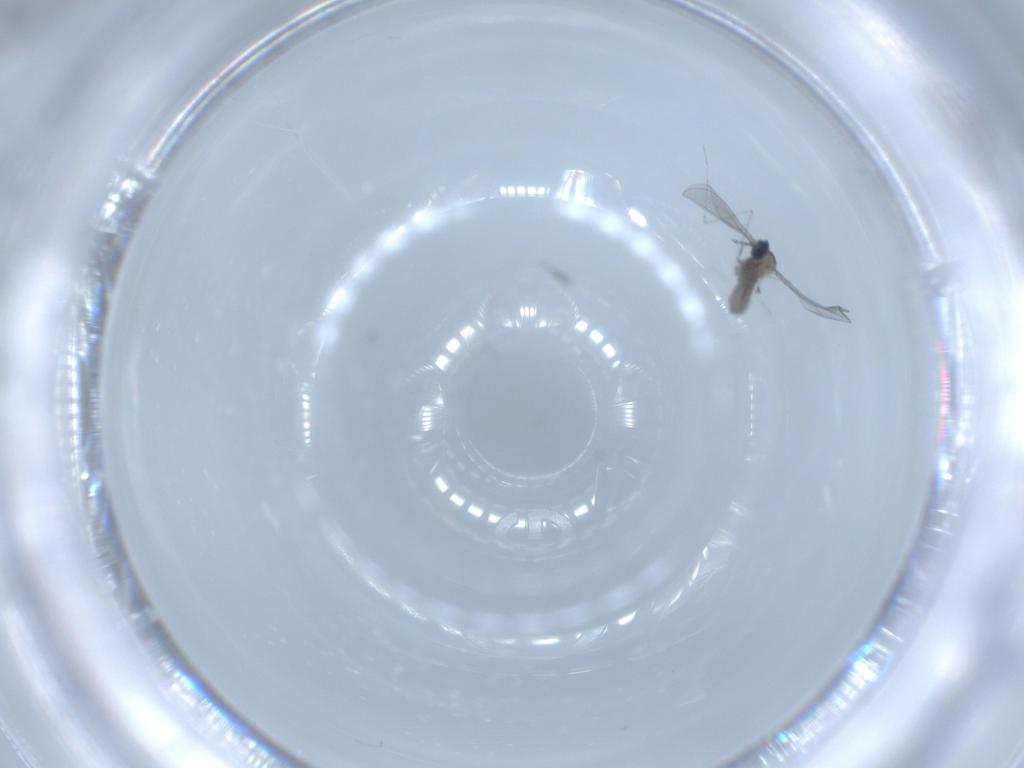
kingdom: Animalia
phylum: Arthropoda
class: Insecta
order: Diptera
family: Cecidomyiidae
